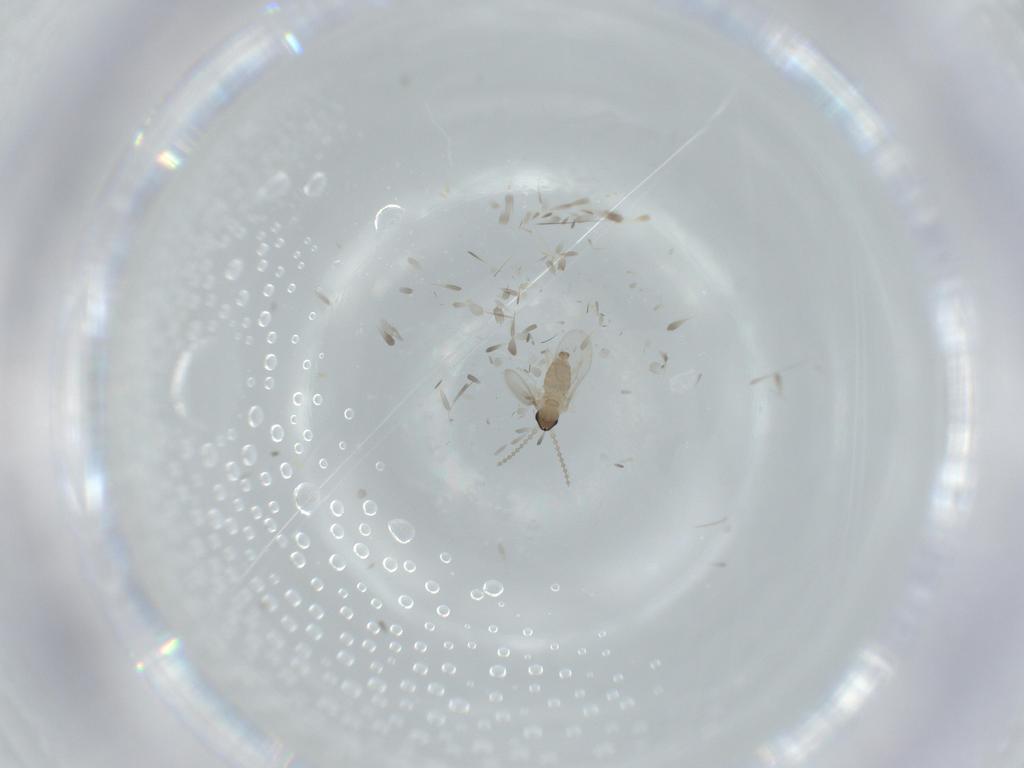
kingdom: Animalia
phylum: Arthropoda
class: Insecta
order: Diptera
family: Cecidomyiidae
